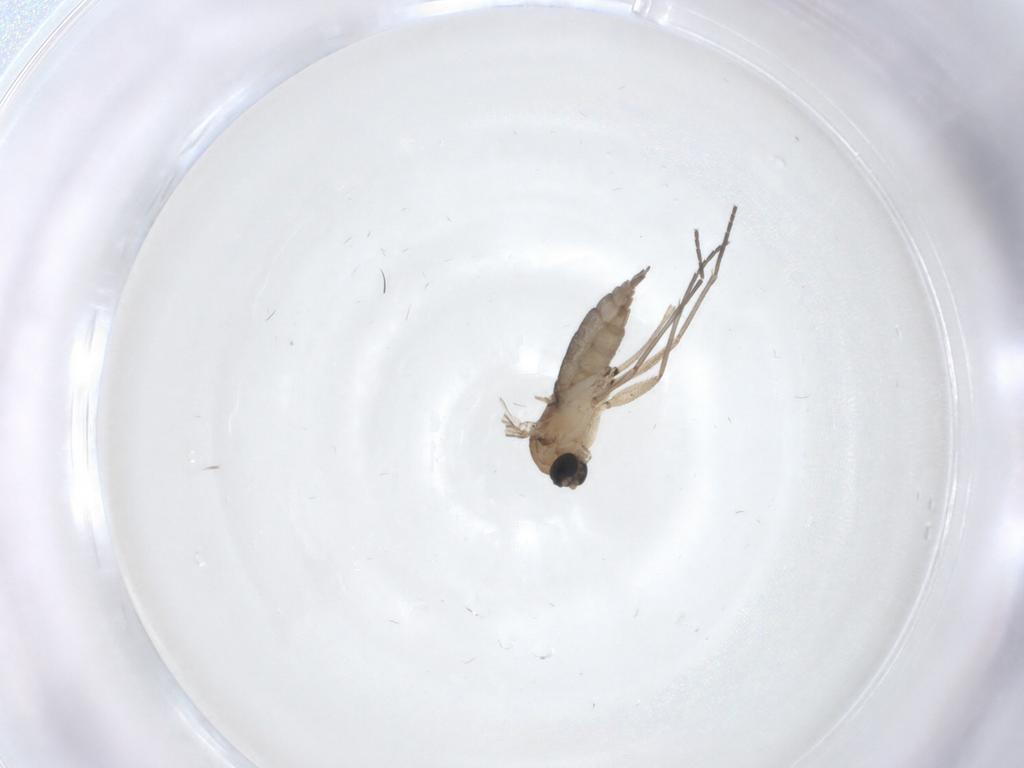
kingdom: Animalia
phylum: Arthropoda
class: Insecta
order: Diptera
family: Sciaridae
